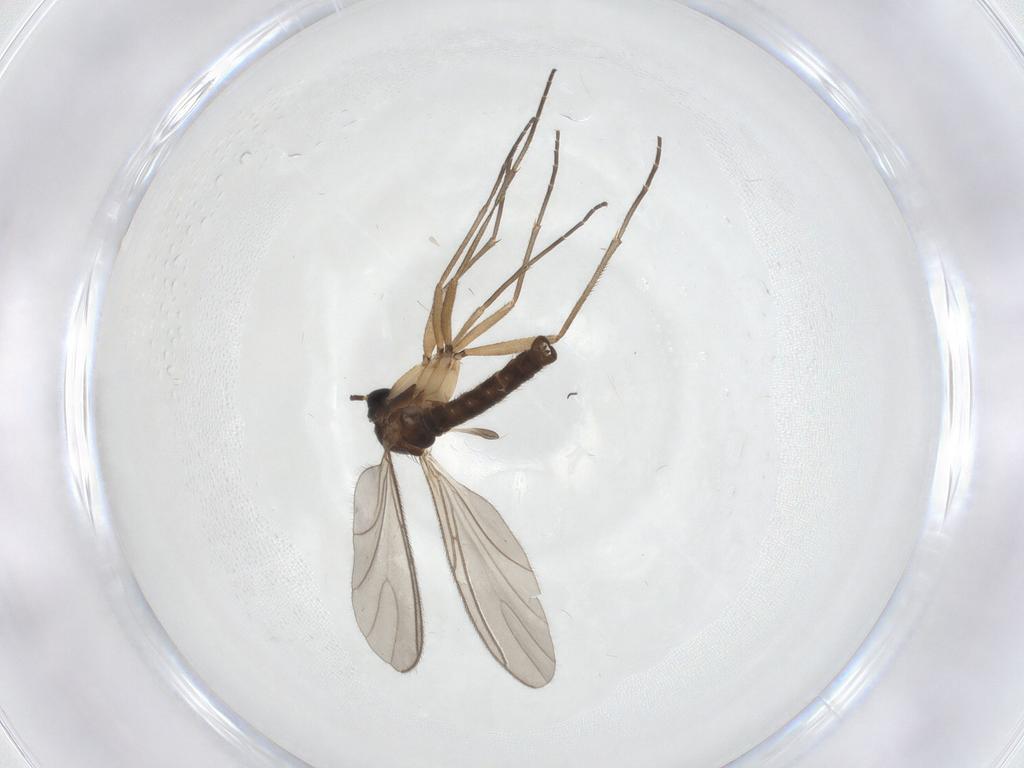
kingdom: Animalia
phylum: Arthropoda
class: Insecta
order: Diptera
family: Sciaridae
